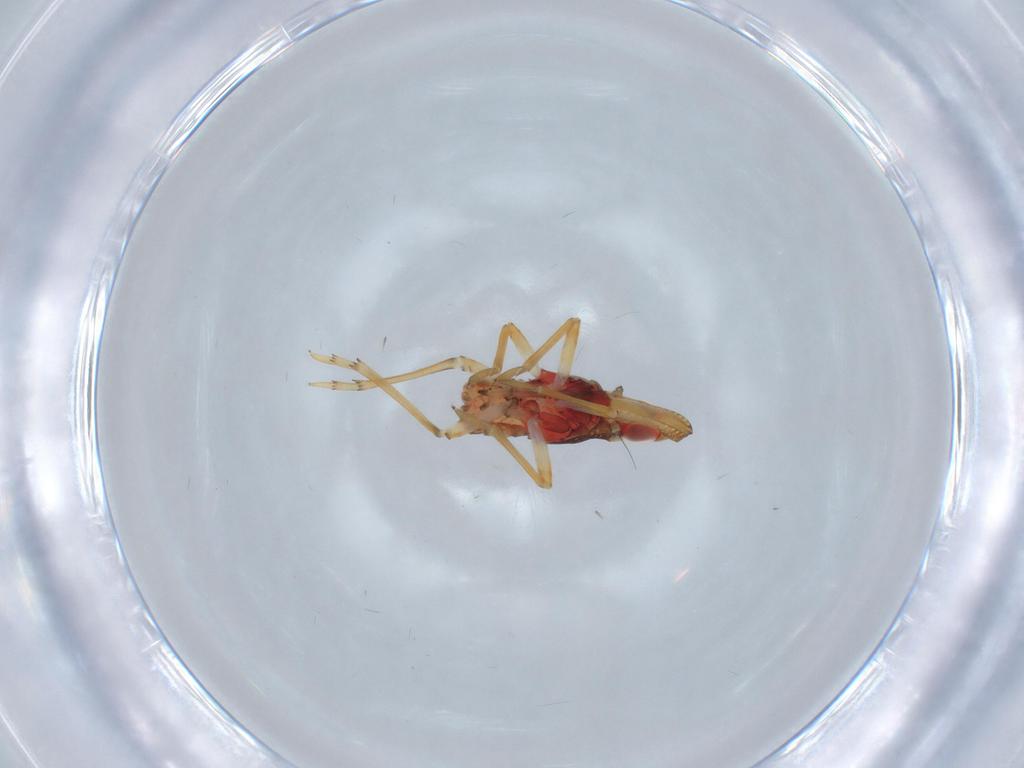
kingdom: Animalia
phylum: Arthropoda
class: Insecta
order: Hemiptera
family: Fulgoroidea_incertae_sedis
